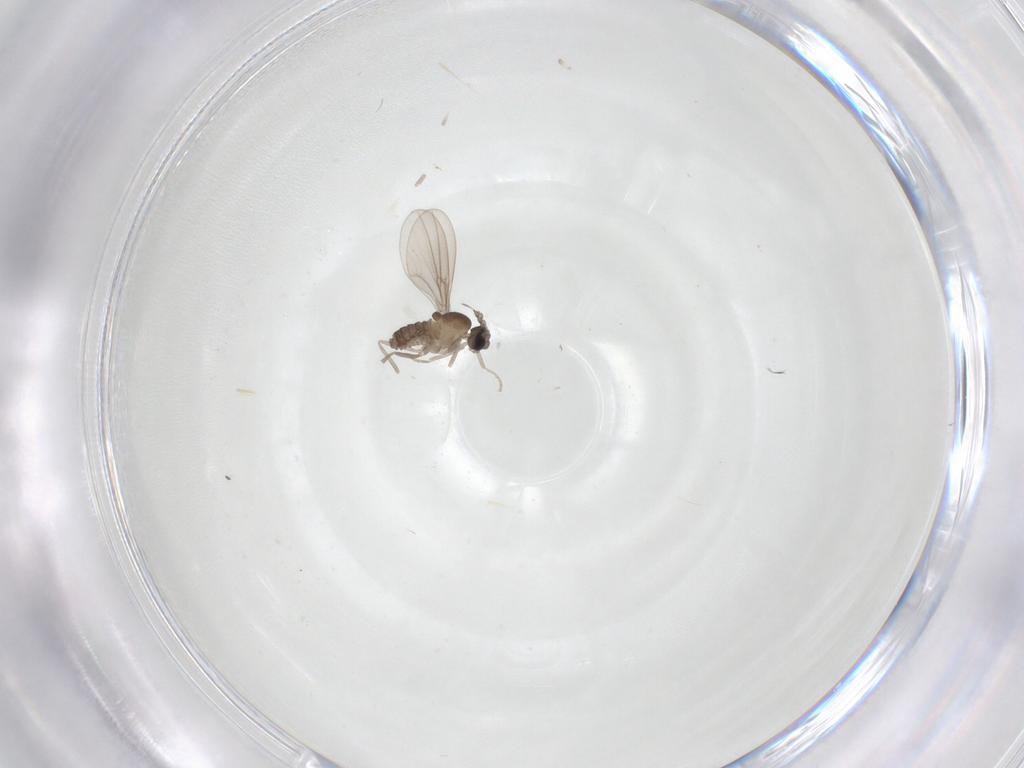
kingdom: Animalia
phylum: Arthropoda
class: Insecta
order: Diptera
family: Cecidomyiidae
